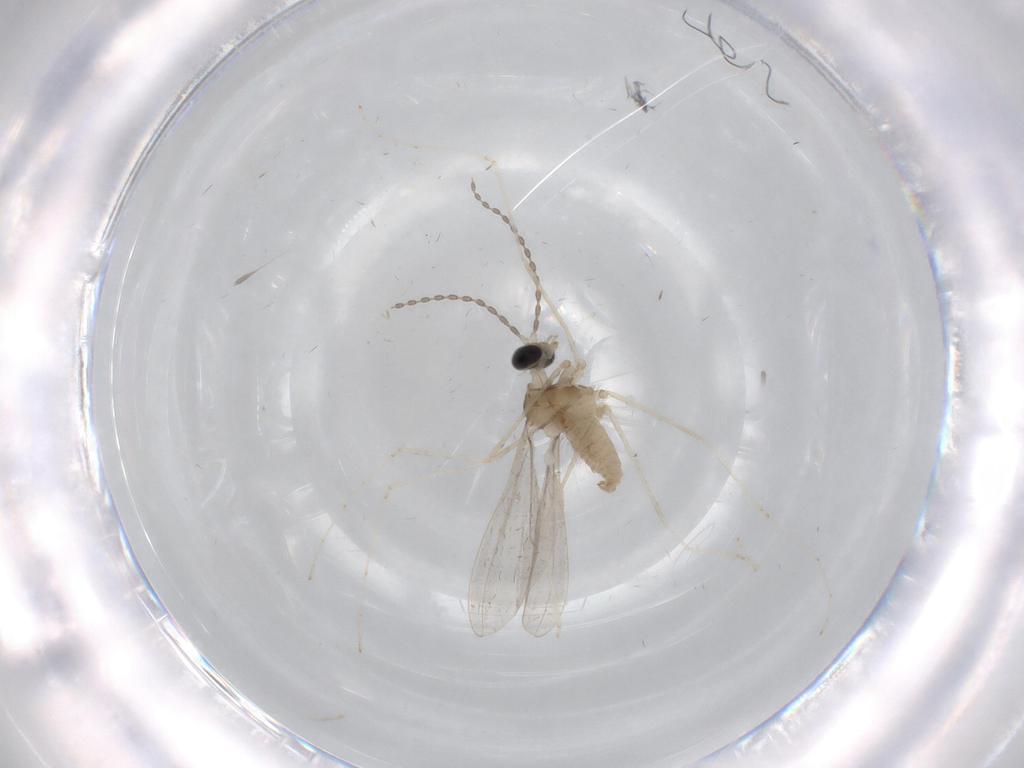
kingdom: Animalia
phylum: Arthropoda
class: Insecta
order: Diptera
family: Cecidomyiidae
